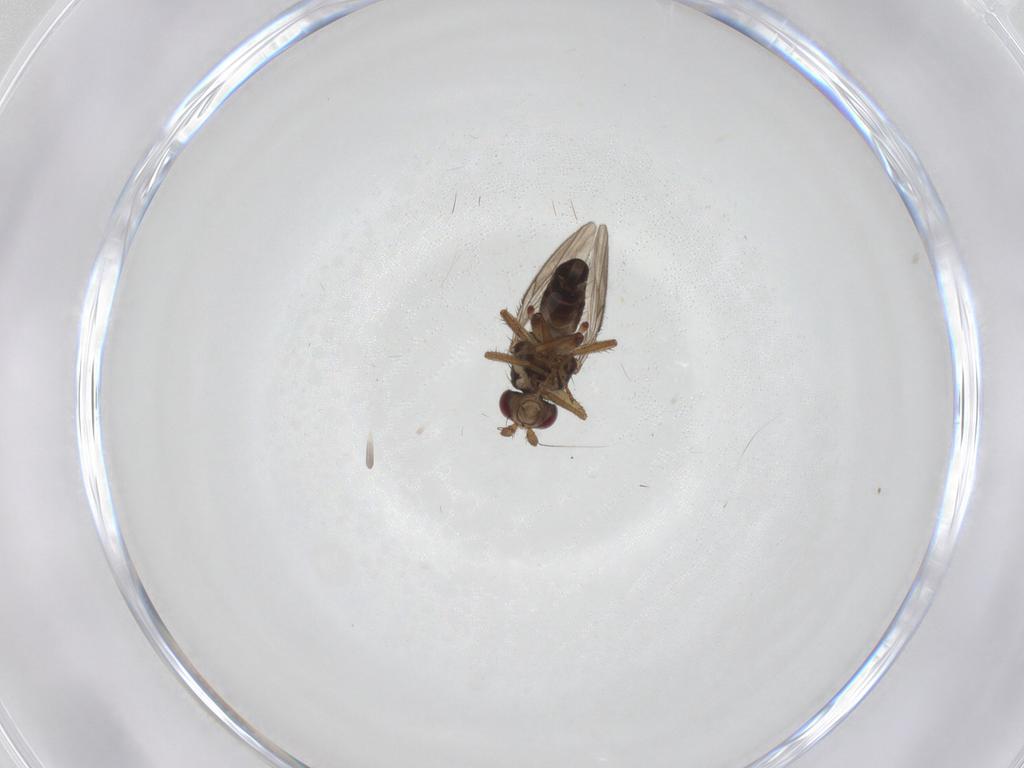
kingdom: Animalia
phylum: Arthropoda
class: Insecta
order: Diptera
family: Sphaeroceridae
